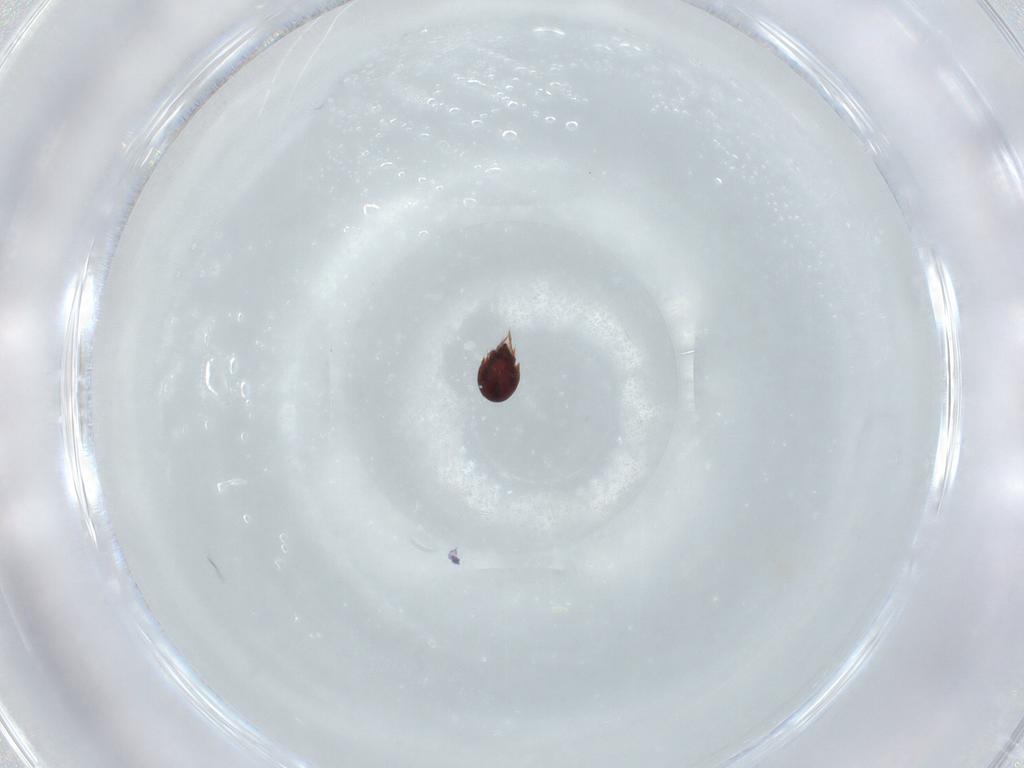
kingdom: Animalia
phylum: Arthropoda
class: Arachnida
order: Sarcoptiformes
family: Oribatellidae
